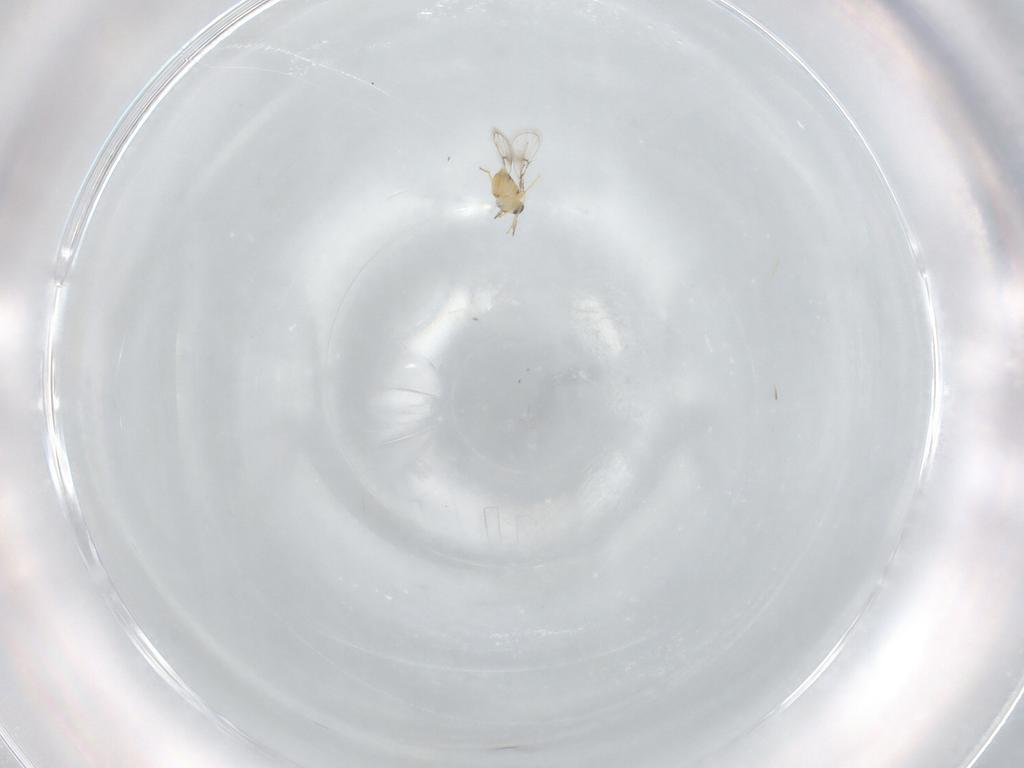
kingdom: Animalia
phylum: Arthropoda
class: Insecta
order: Hymenoptera
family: Trichogrammatidae
